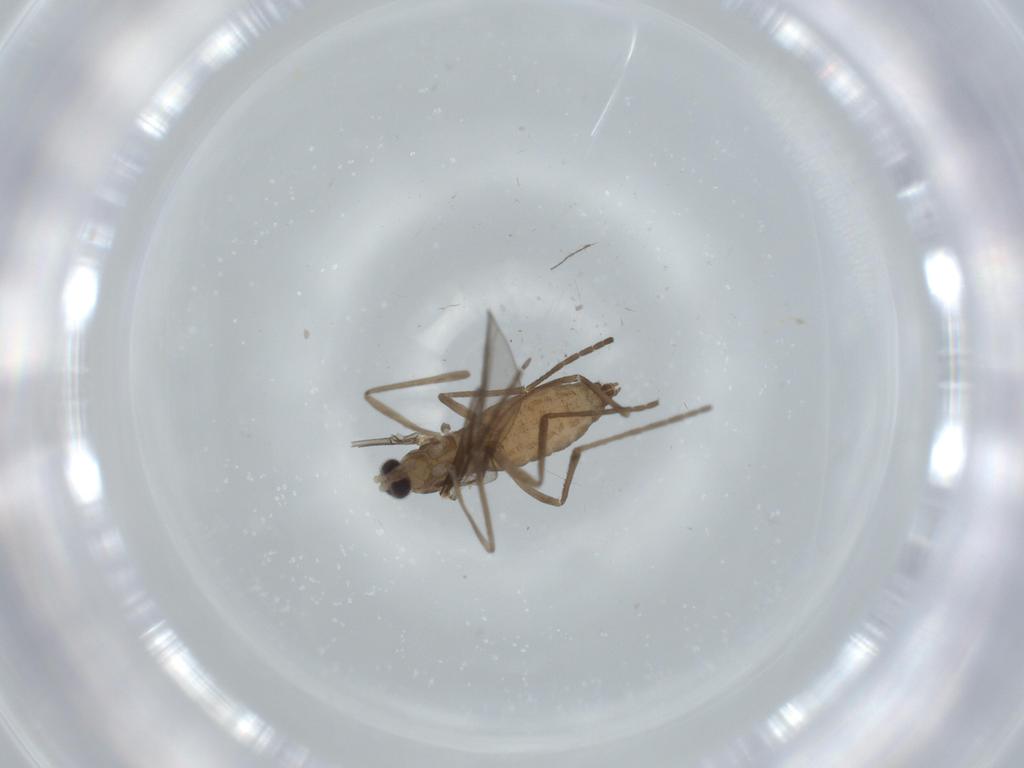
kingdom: Animalia
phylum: Arthropoda
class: Insecta
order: Diptera
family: Cecidomyiidae
